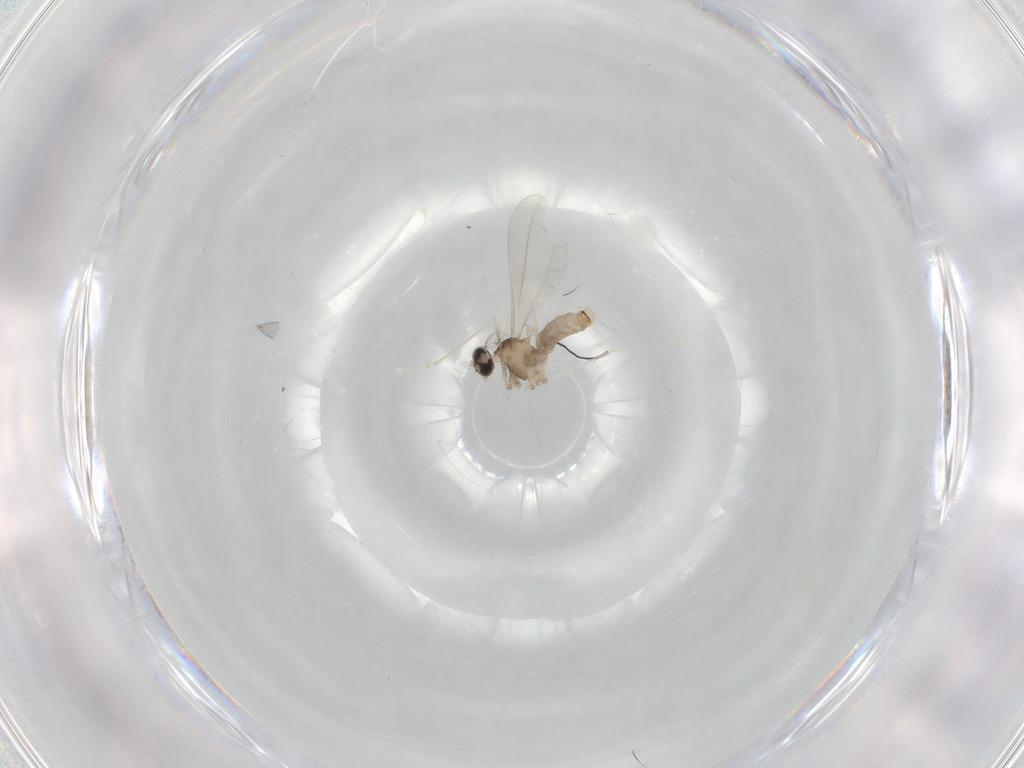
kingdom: Animalia
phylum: Arthropoda
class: Insecta
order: Diptera
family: Cecidomyiidae
